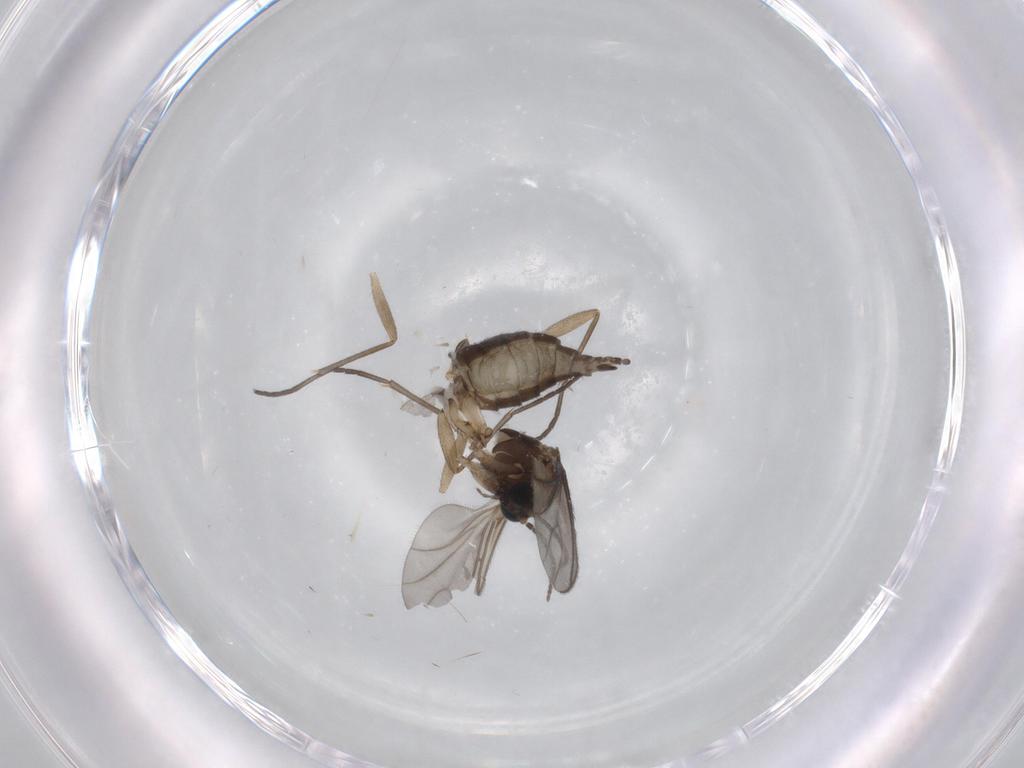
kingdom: Animalia
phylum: Arthropoda
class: Insecta
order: Diptera
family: Sciaridae
